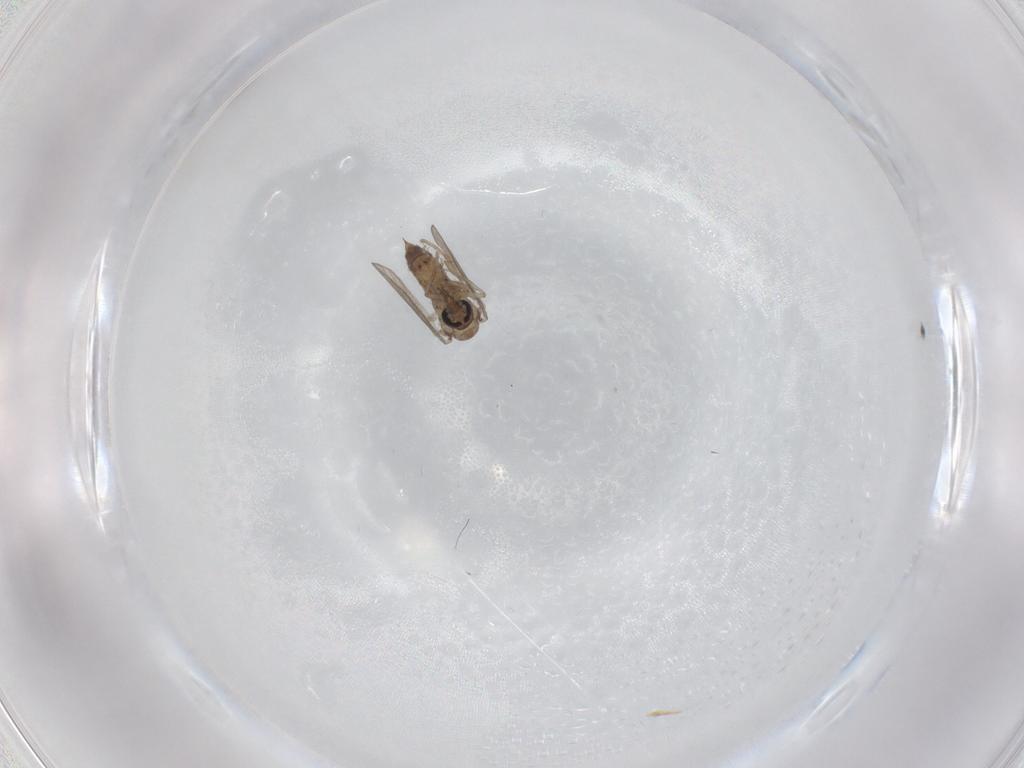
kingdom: Animalia
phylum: Arthropoda
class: Insecta
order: Diptera
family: Psychodidae
